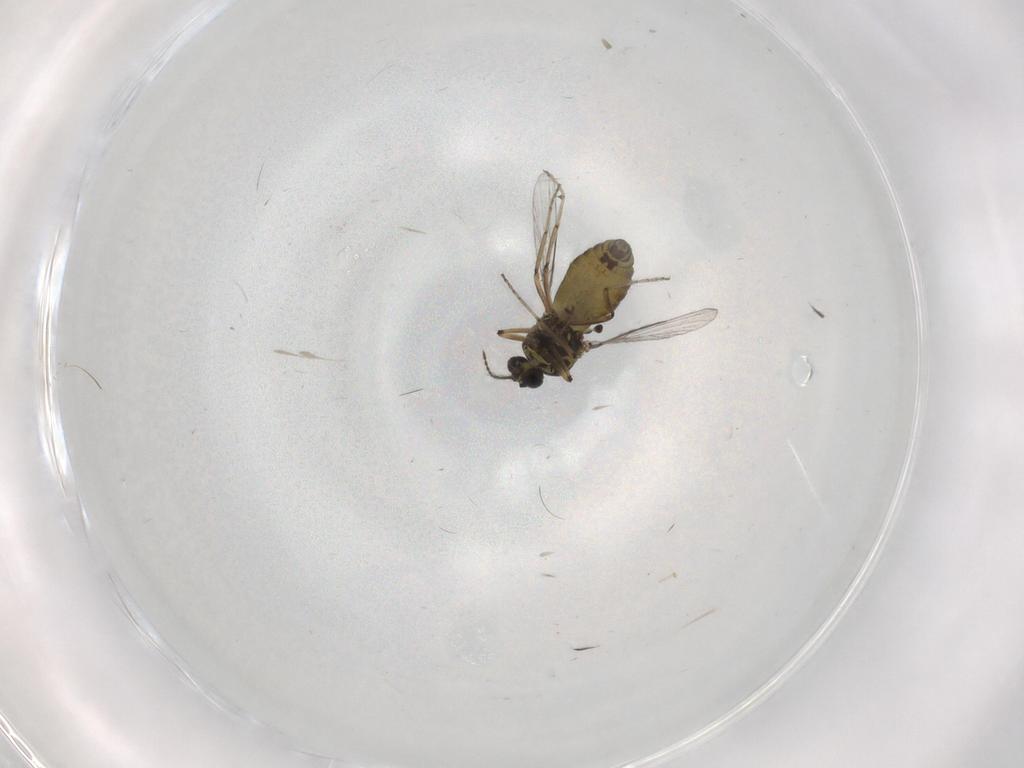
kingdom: Animalia
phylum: Arthropoda
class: Insecta
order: Diptera
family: Ceratopogonidae
